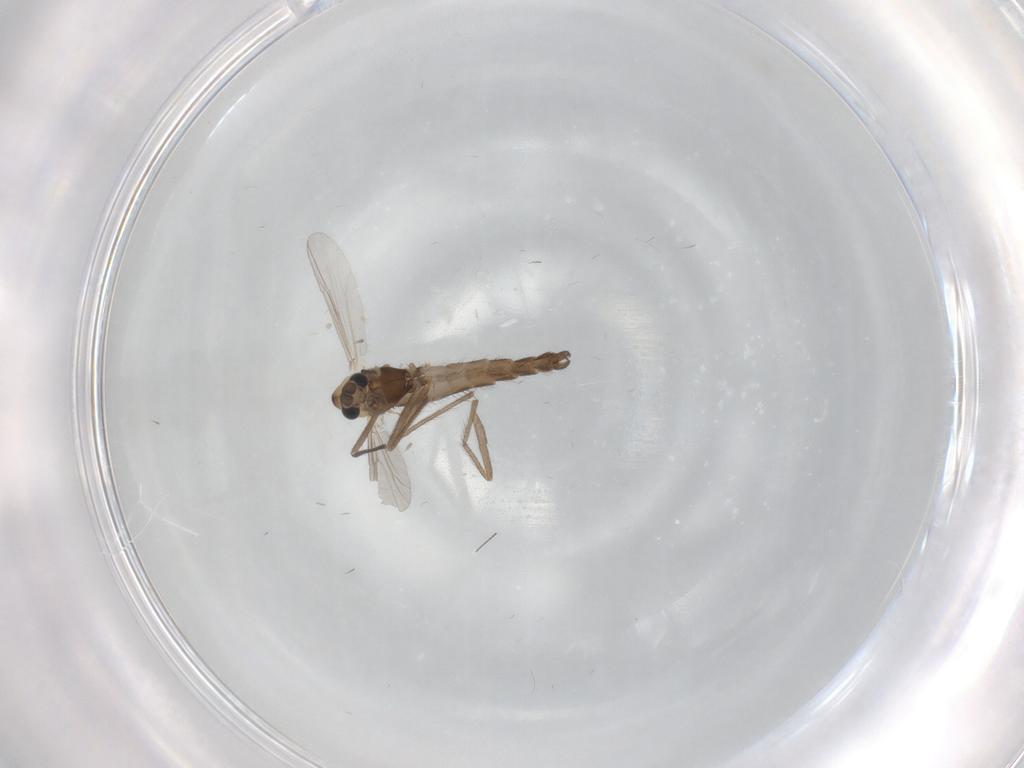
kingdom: Animalia
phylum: Arthropoda
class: Insecta
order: Diptera
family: Chironomidae
